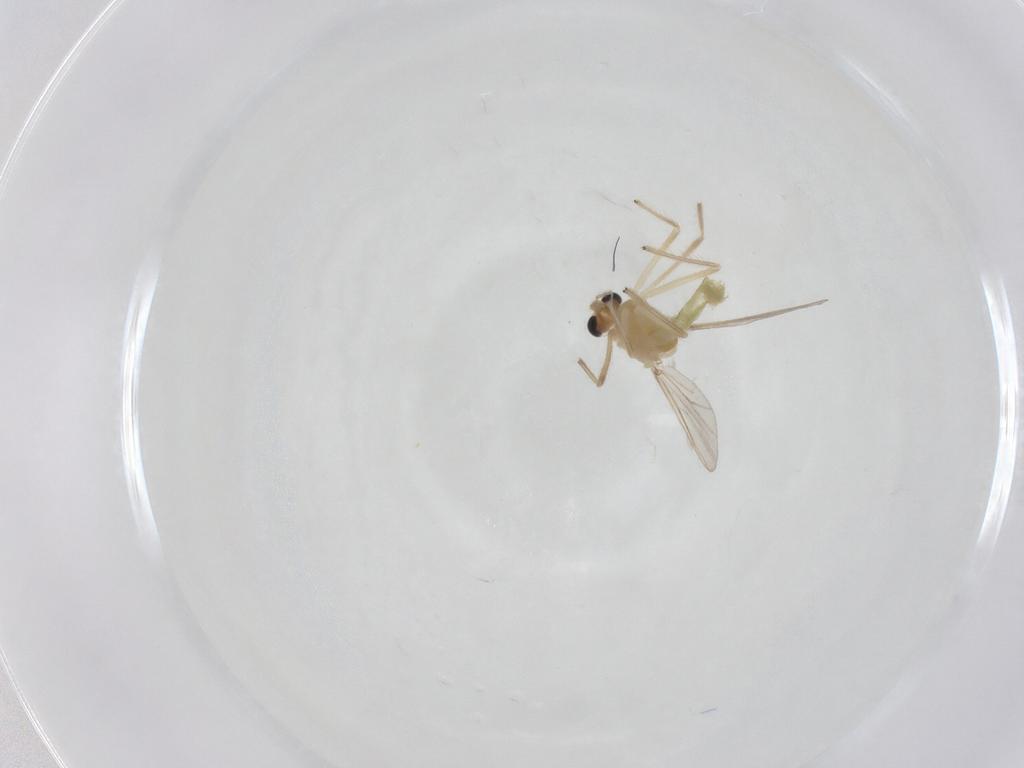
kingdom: Animalia
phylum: Arthropoda
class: Insecta
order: Diptera
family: Chironomidae
